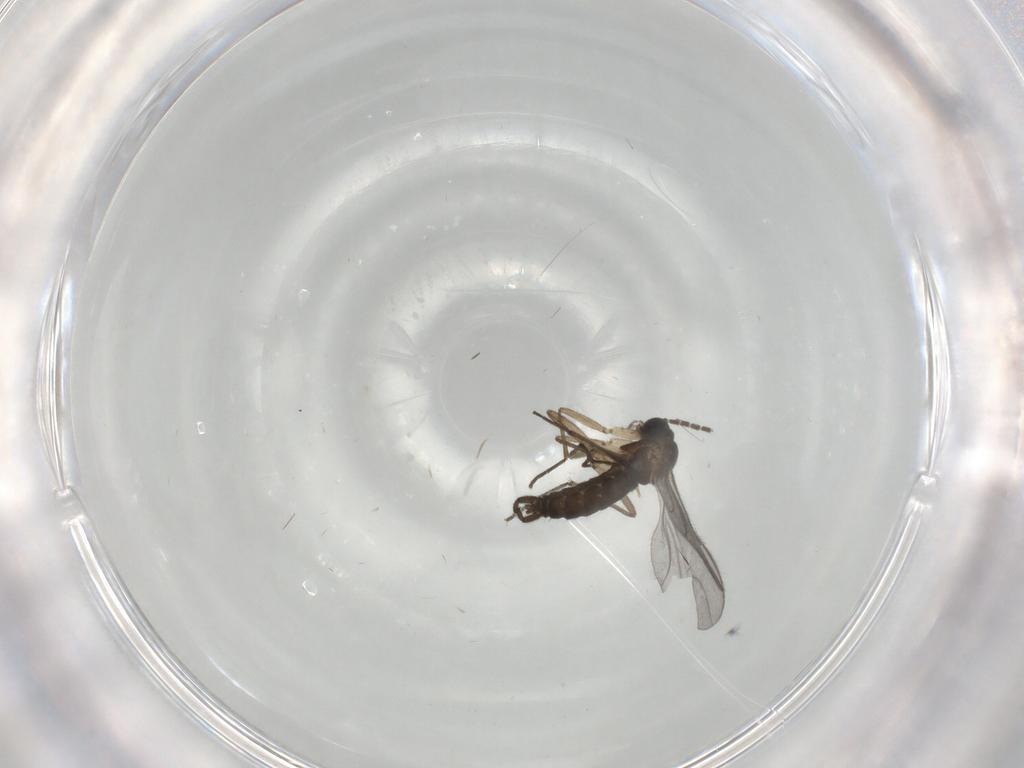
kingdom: Animalia
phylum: Arthropoda
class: Insecta
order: Diptera
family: Sciaridae
